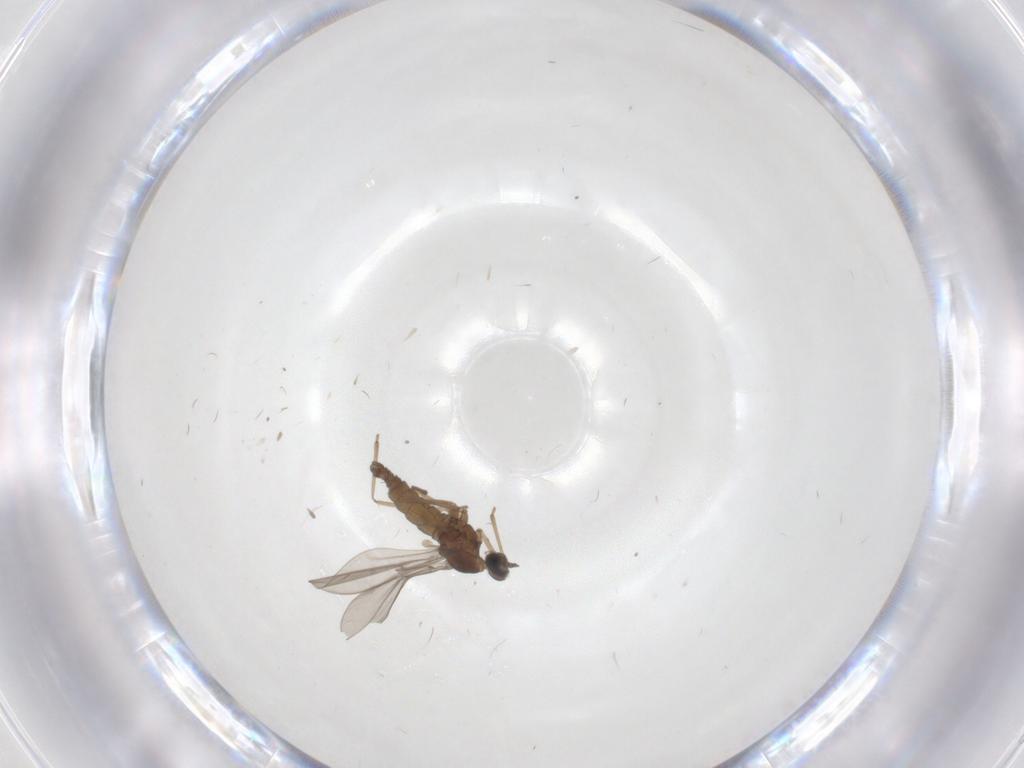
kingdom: Animalia
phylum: Arthropoda
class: Insecta
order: Diptera
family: Cecidomyiidae
